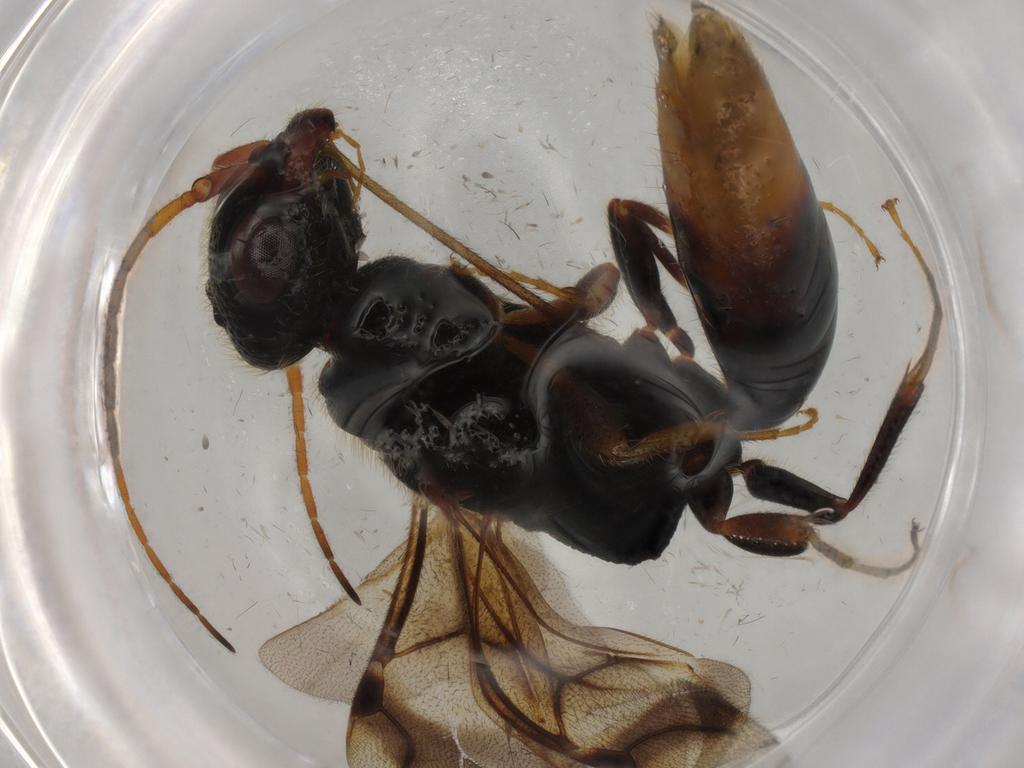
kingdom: Animalia
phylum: Arthropoda
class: Insecta
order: Hymenoptera
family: Bethylidae
